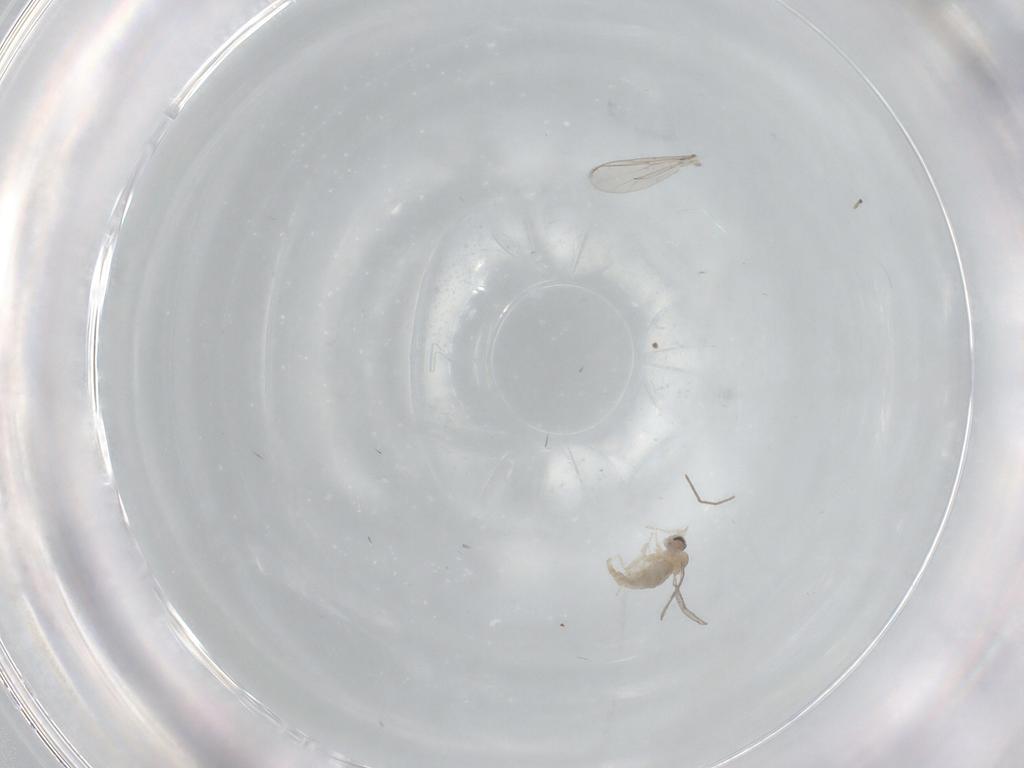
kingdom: Animalia
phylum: Arthropoda
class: Insecta
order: Diptera
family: Cecidomyiidae
